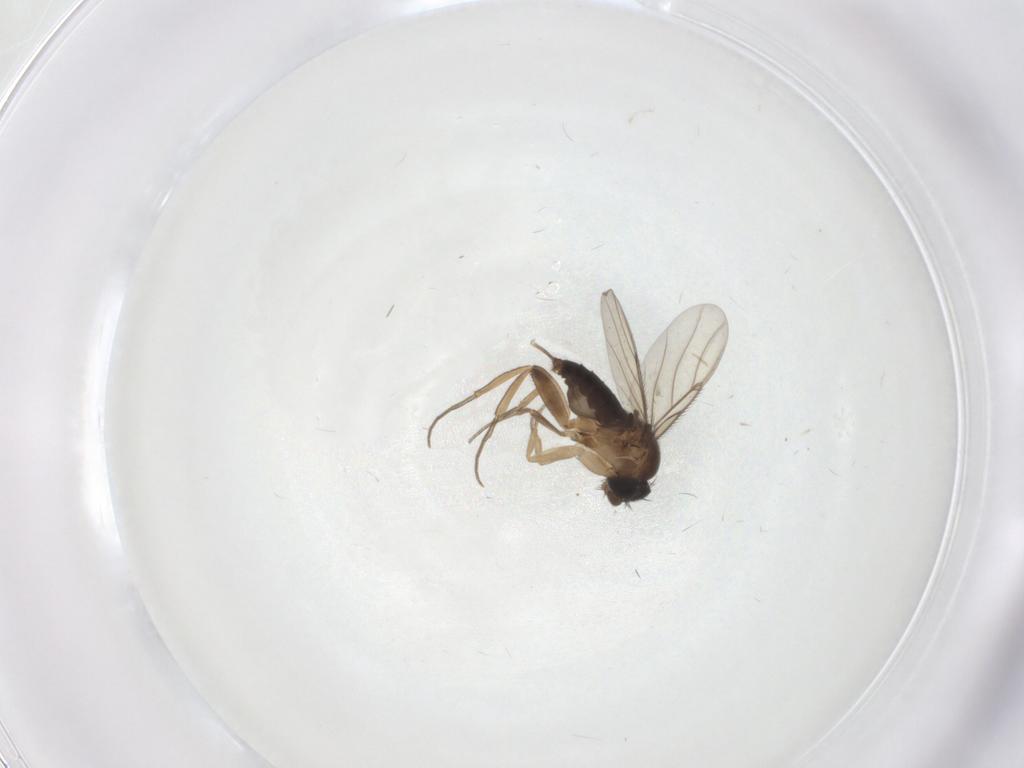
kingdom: Animalia
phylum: Arthropoda
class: Insecta
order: Diptera
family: Phoridae
